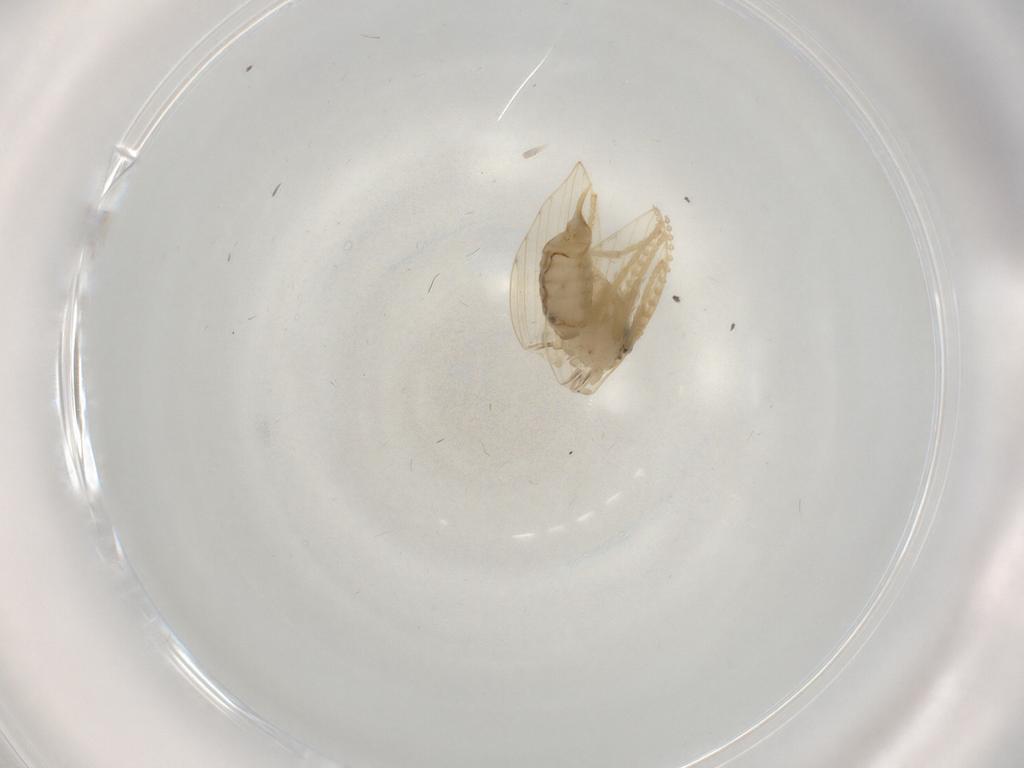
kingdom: Animalia
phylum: Arthropoda
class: Insecta
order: Diptera
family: Psychodidae
